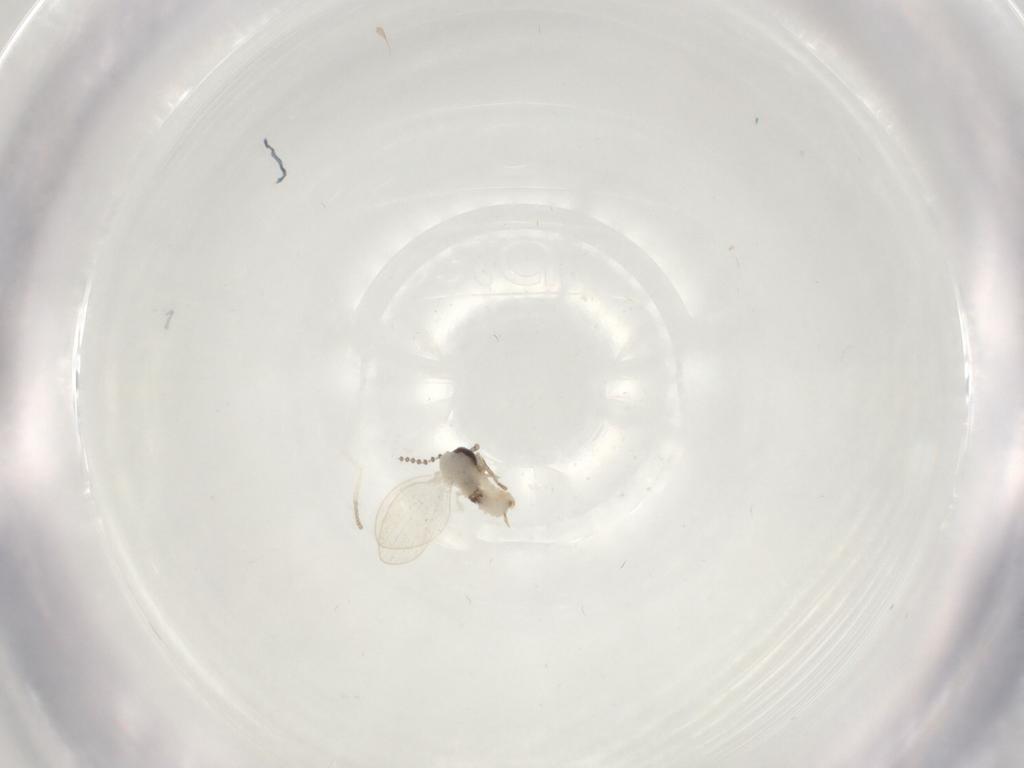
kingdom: Animalia
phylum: Arthropoda
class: Insecta
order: Diptera
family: Psychodidae
